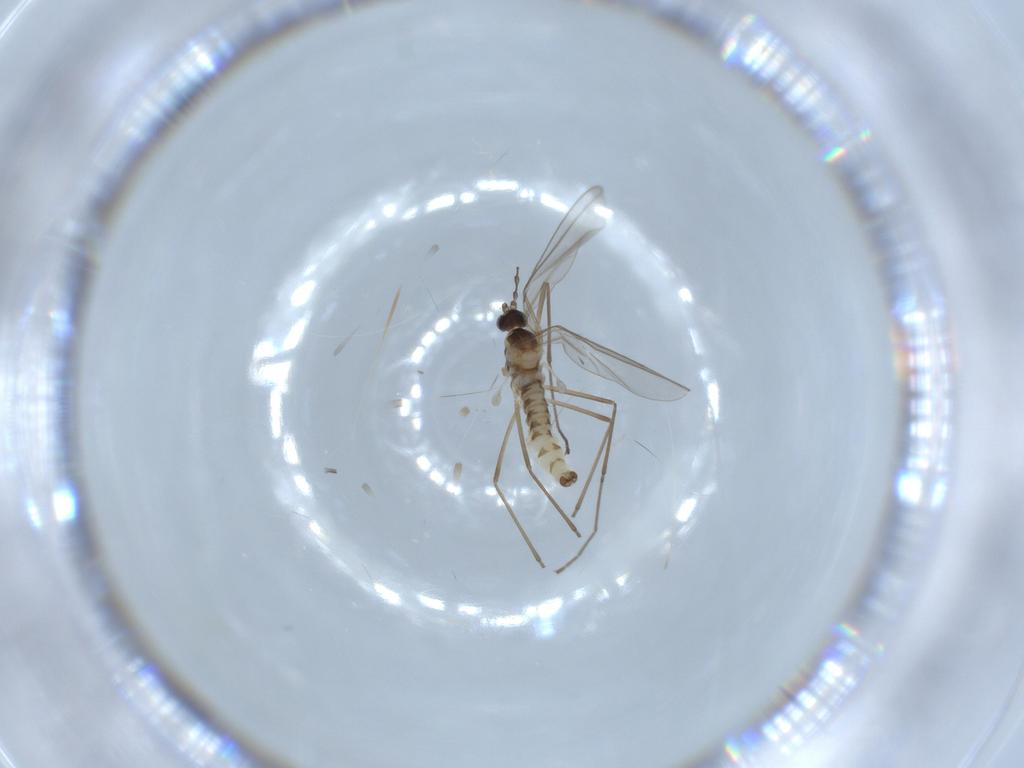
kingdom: Animalia
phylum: Arthropoda
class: Insecta
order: Diptera
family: Cecidomyiidae
